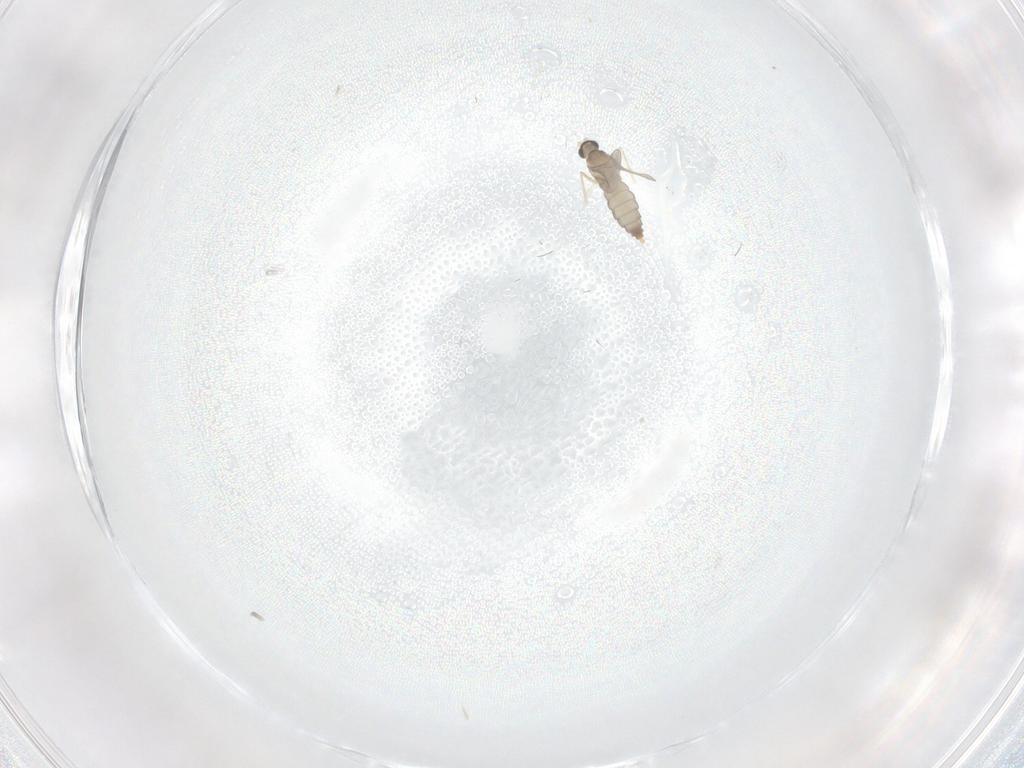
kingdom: Animalia
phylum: Arthropoda
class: Insecta
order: Diptera
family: Cecidomyiidae
